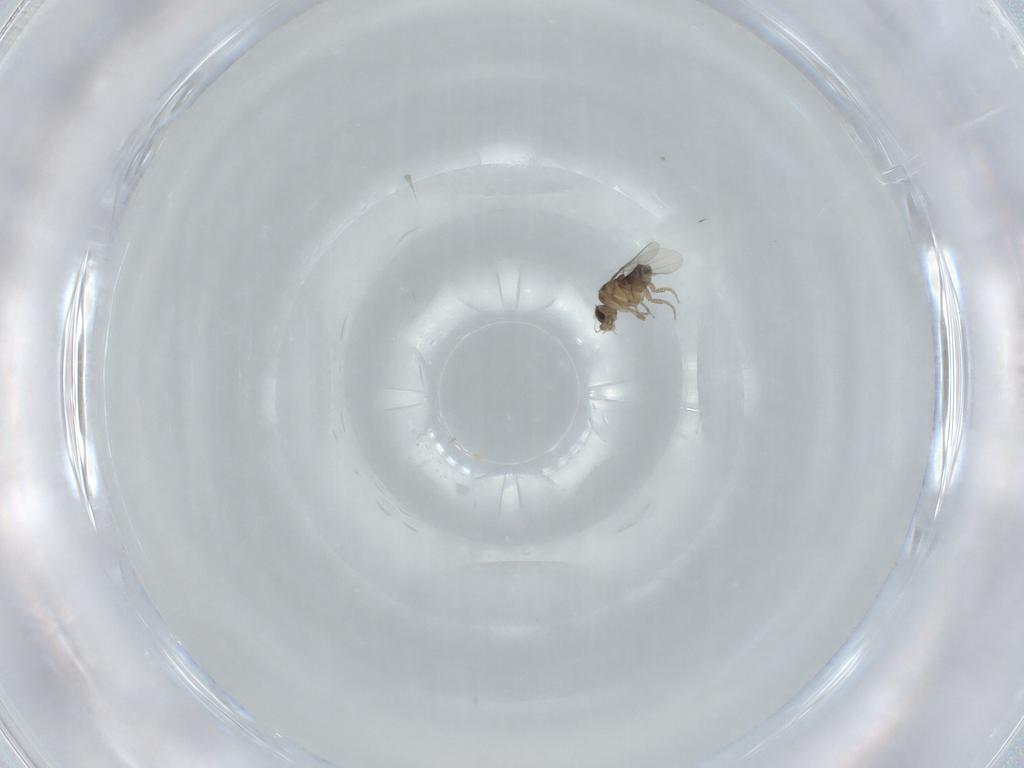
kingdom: Animalia
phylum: Arthropoda
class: Insecta
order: Diptera
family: Phoridae
